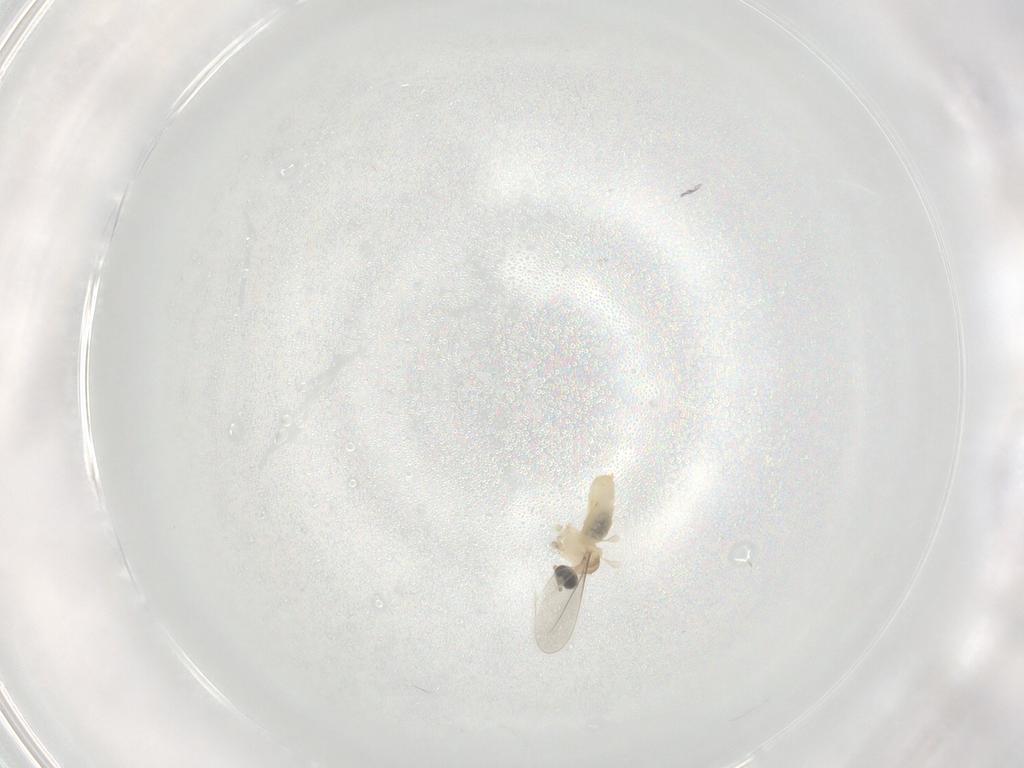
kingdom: Animalia
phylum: Arthropoda
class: Insecta
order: Diptera
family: Cecidomyiidae
